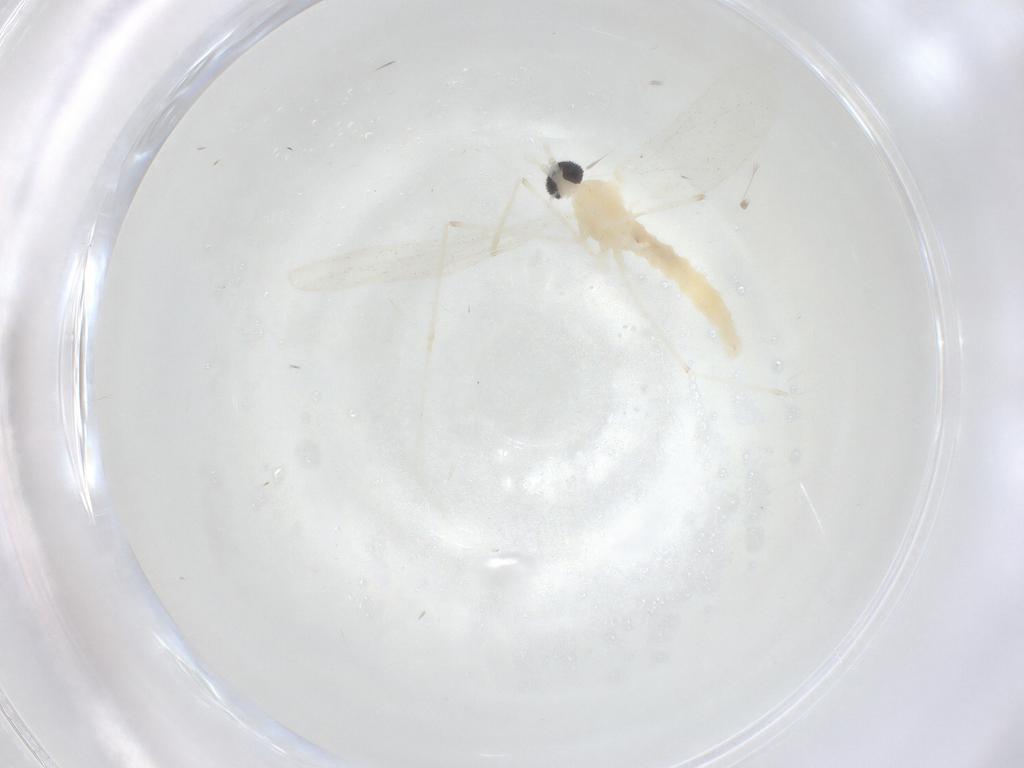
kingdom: Animalia
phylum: Arthropoda
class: Insecta
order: Diptera
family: Cecidomyiidae
